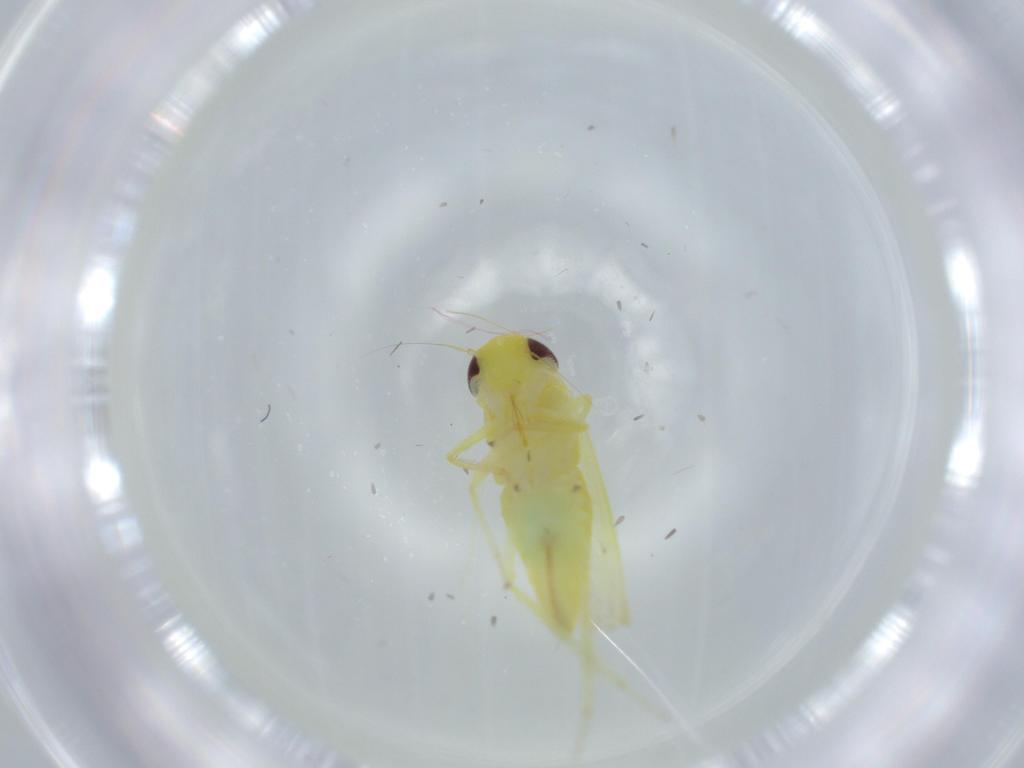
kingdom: Animalia
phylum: Arthropoda
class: Insecta
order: Hemiptera
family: Cicadellidae
